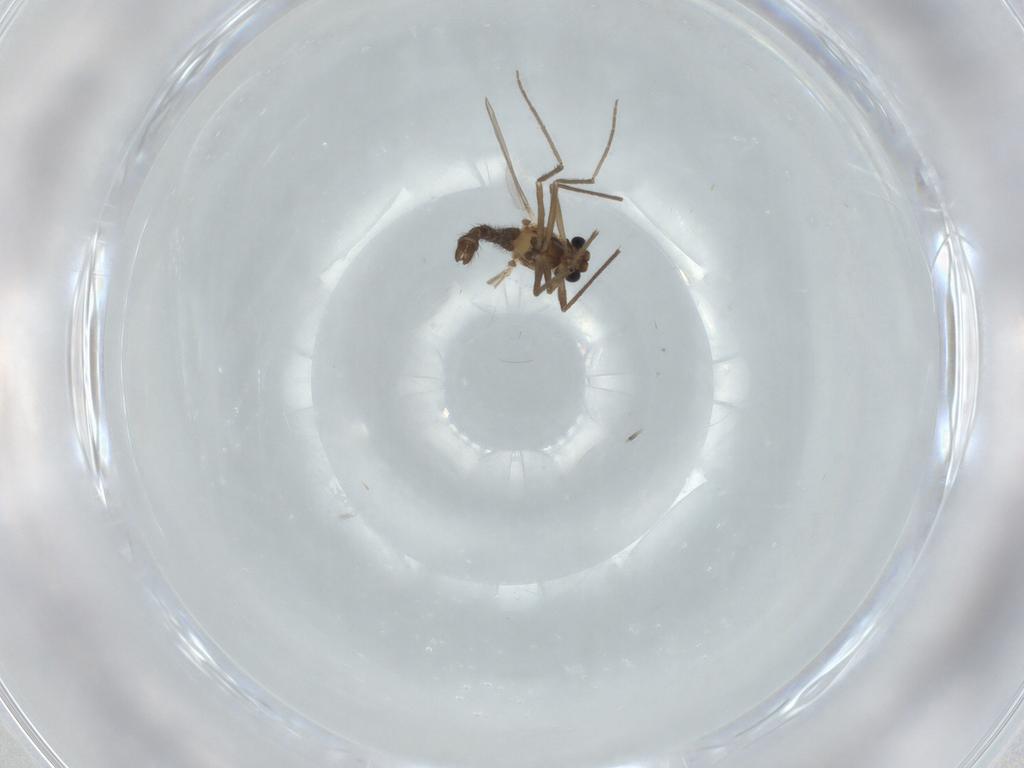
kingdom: Animalia
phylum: Arthropoda
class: Insecta
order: Diptera
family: Chironomidae
